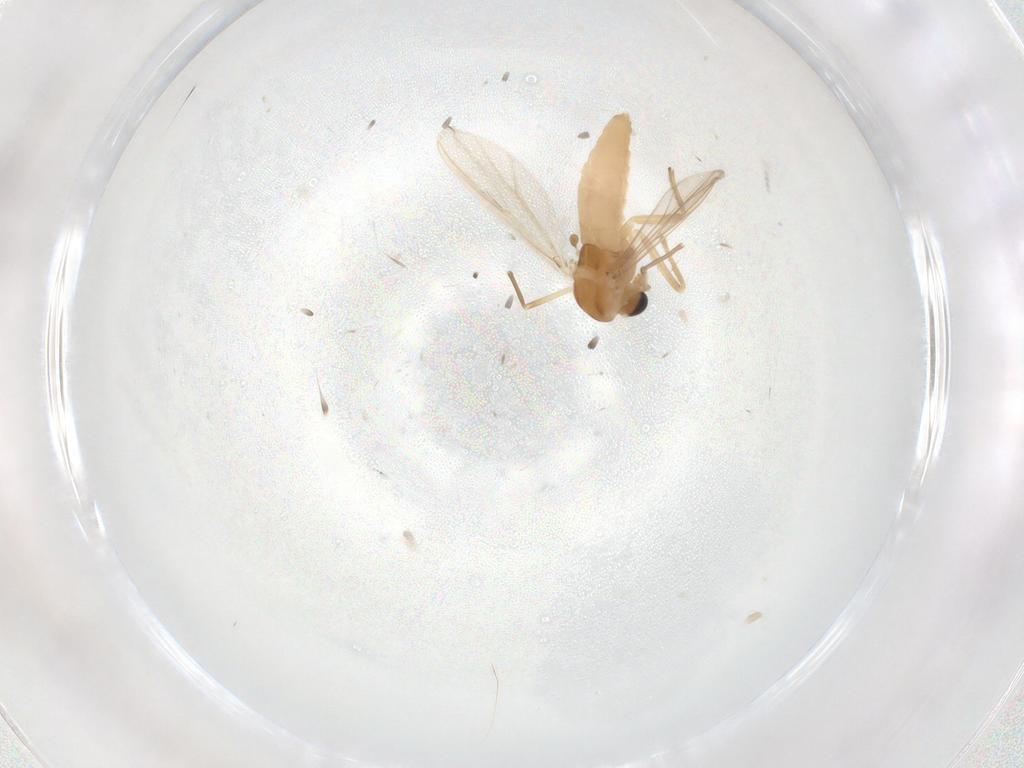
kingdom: Animalia
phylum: Arthropoda
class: Insecta
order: Diptera
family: Chironomidae
